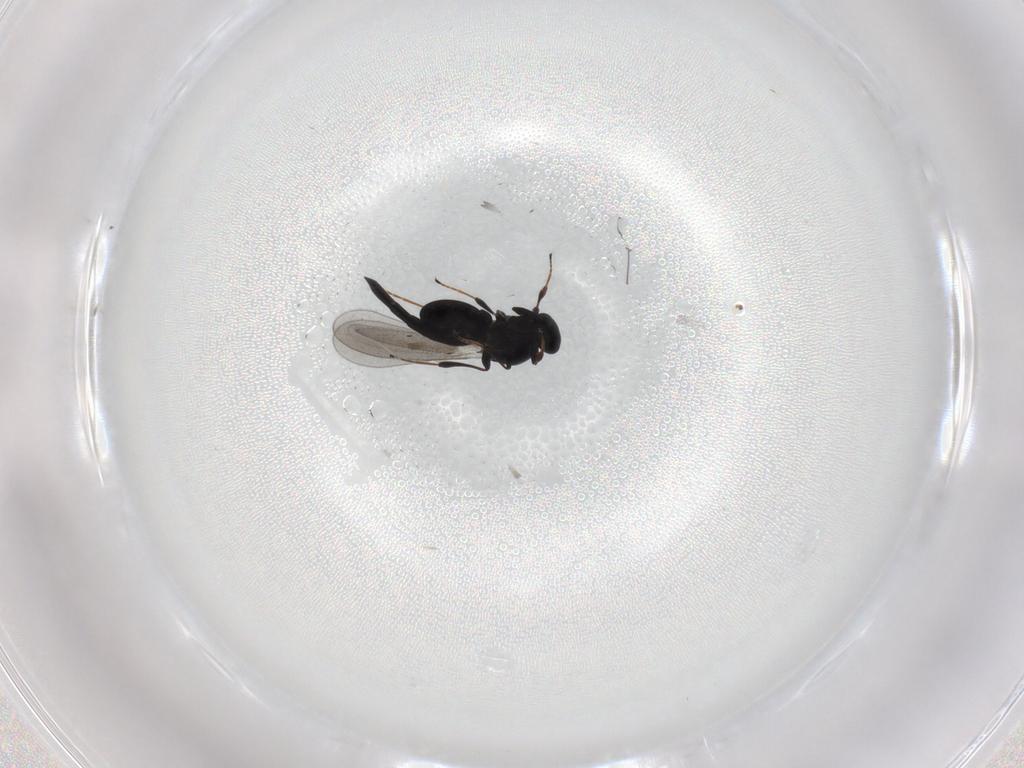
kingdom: Animalia
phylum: Arthropoda
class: Insecta
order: Hymenoptera
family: Platygastridae
